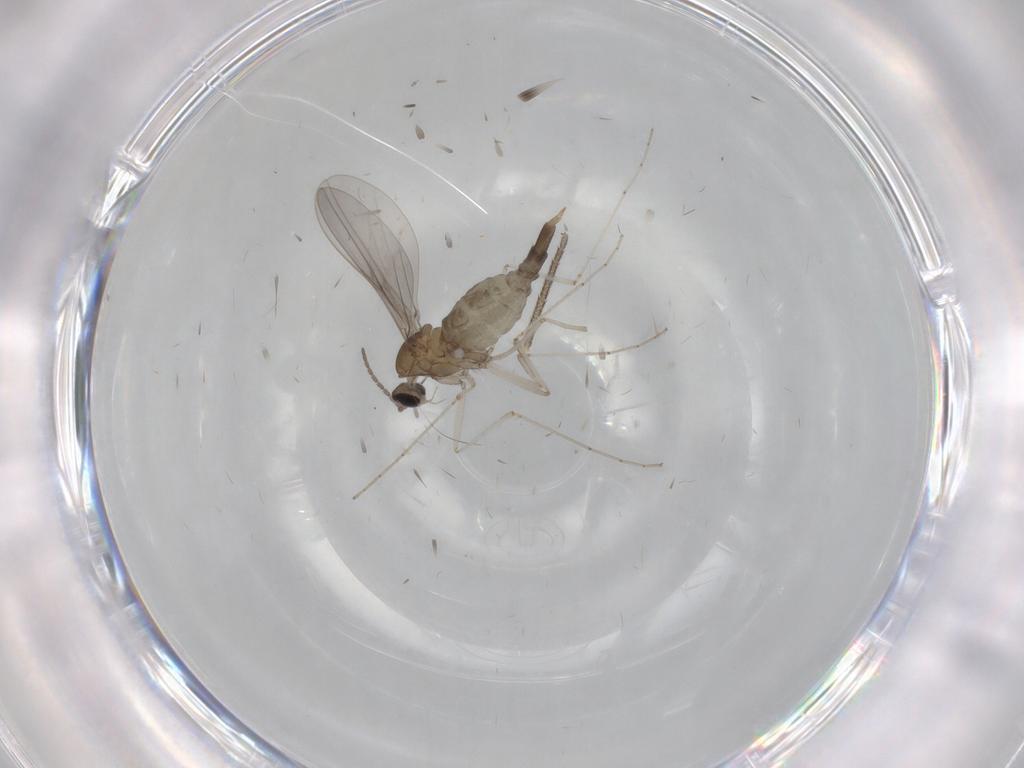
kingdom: Animalia
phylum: Arthropoda
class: Insecta
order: Diptera
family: Mycetophilidae
